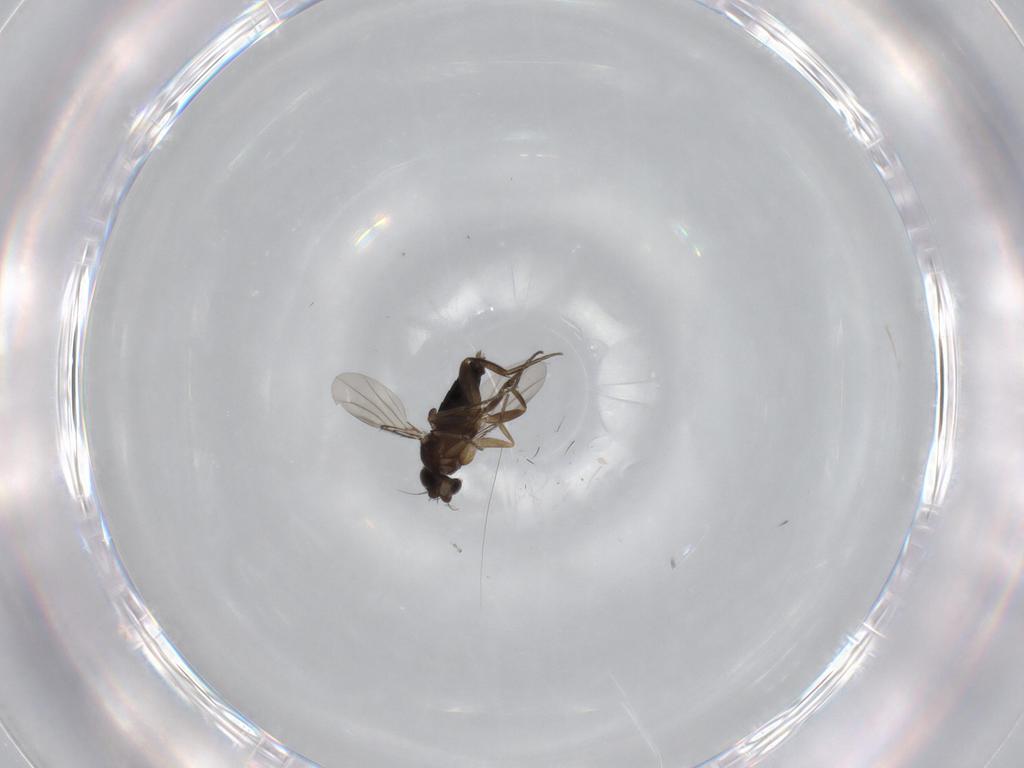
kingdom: Animalia
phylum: Arthropoda
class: Insecta
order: Diptera
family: Phoridae
